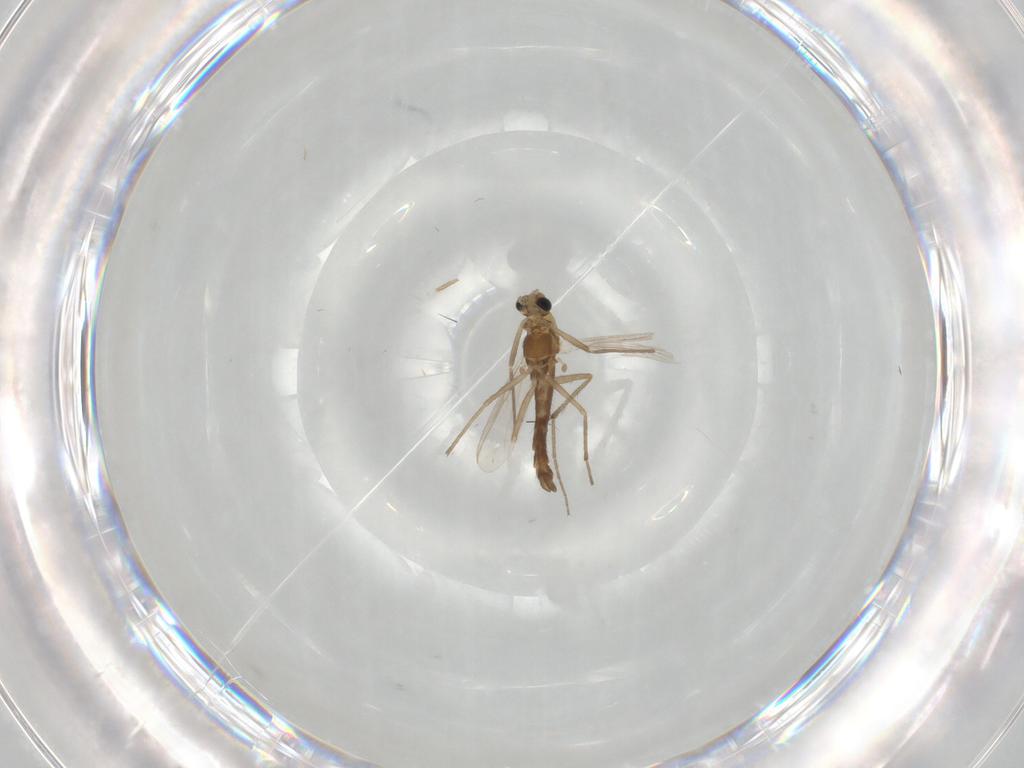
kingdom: Animalia
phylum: Arthropoda
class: Insecta
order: Diptera
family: Chironomidae
